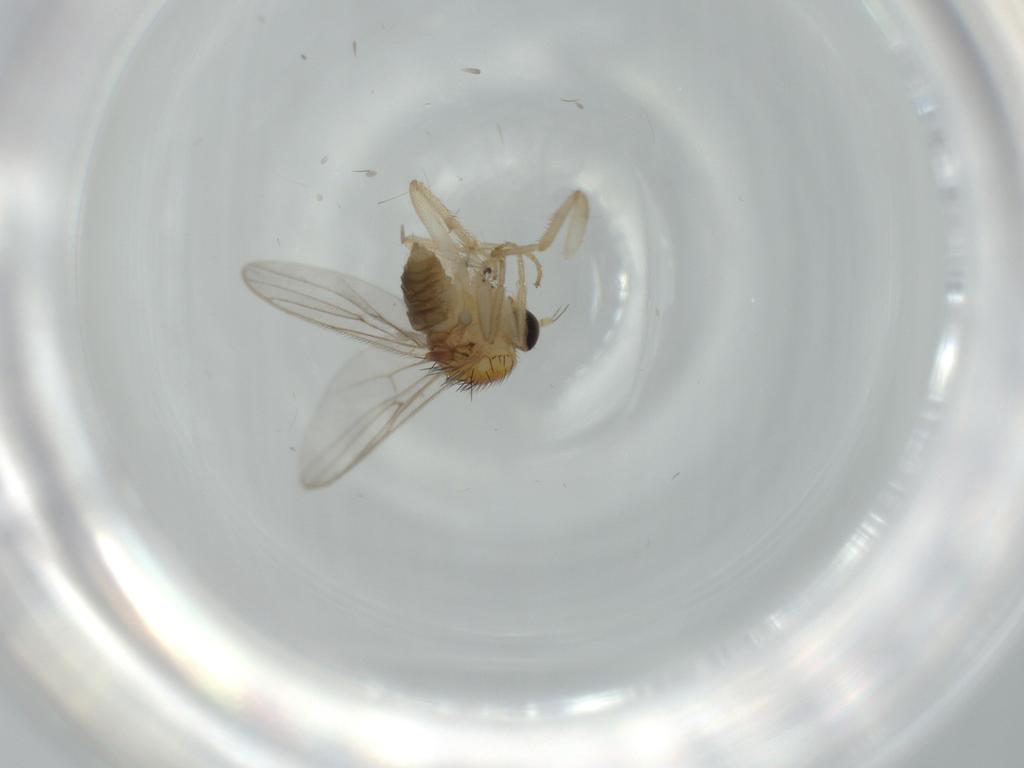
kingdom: Animalia
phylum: Arthropoda
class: Insecta
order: Diptera
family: Hybotidae
